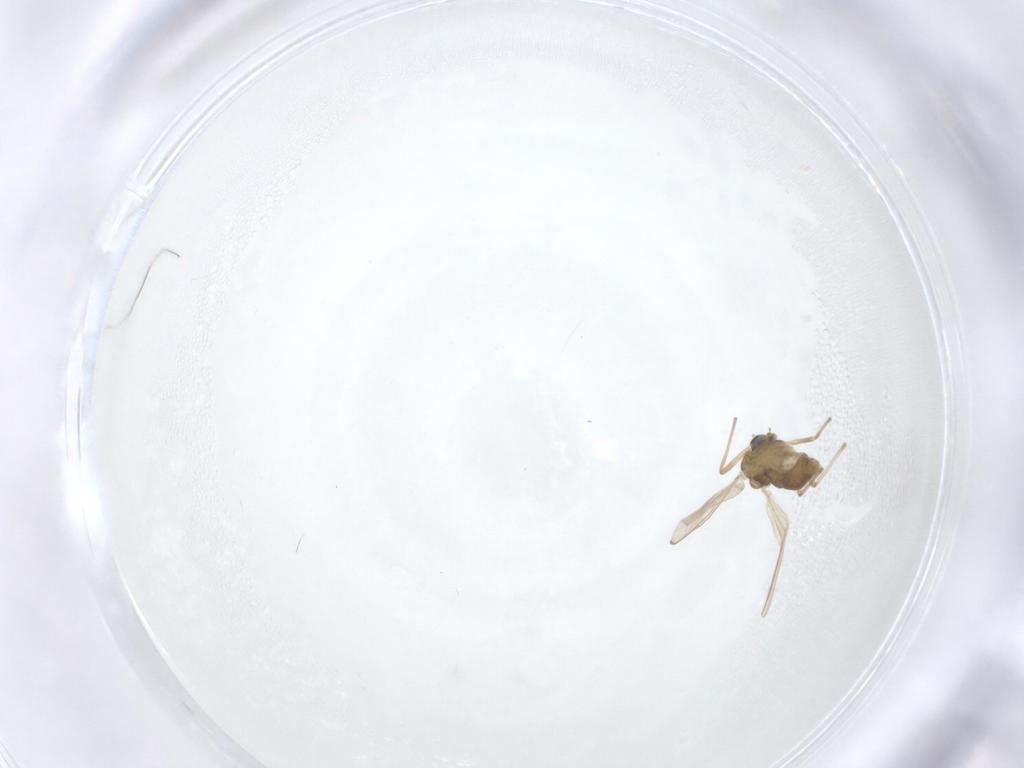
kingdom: Animalia
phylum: Arthropoda
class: Insecta
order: Diptera
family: Chironomidae
